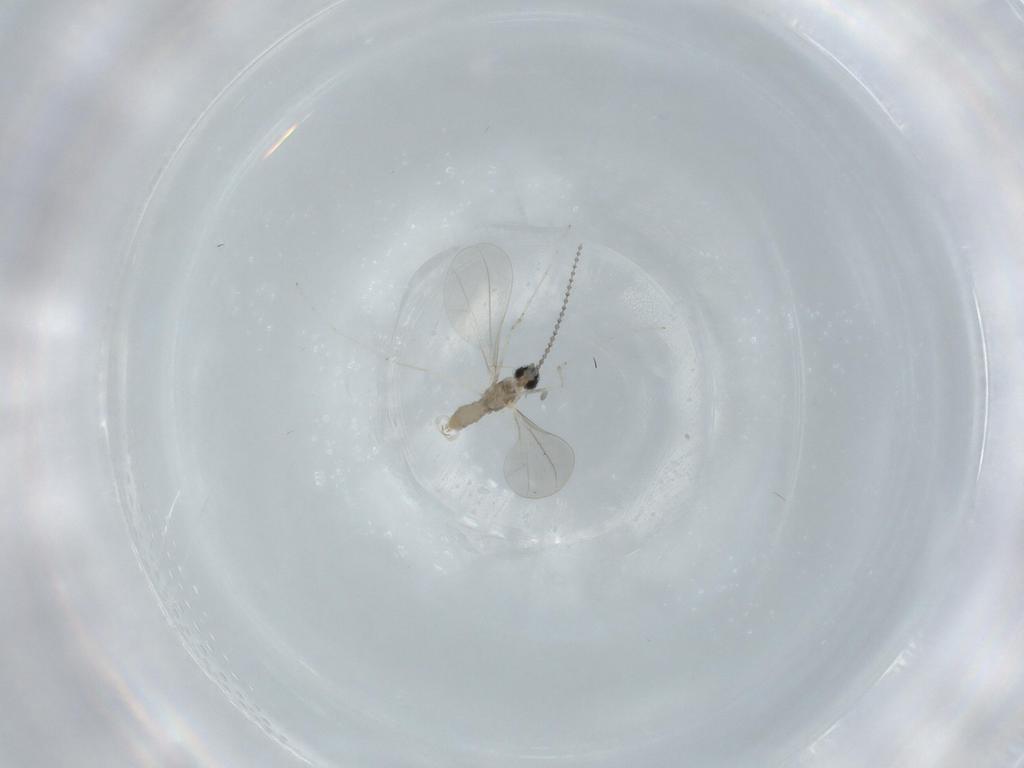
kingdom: Animalia
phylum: Arthropoda
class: Insecta
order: Diptera
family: Cecidomyiidae
